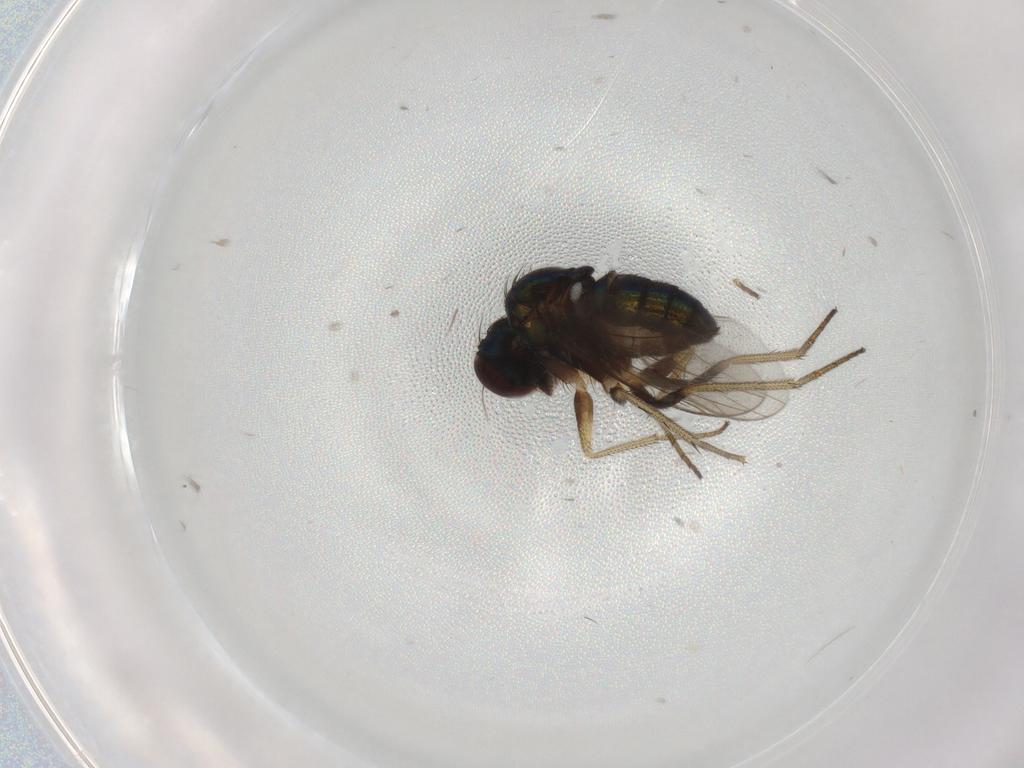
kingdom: Animalia
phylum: Arthropoda
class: Insecta
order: Diptera
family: Dolichopodidae
